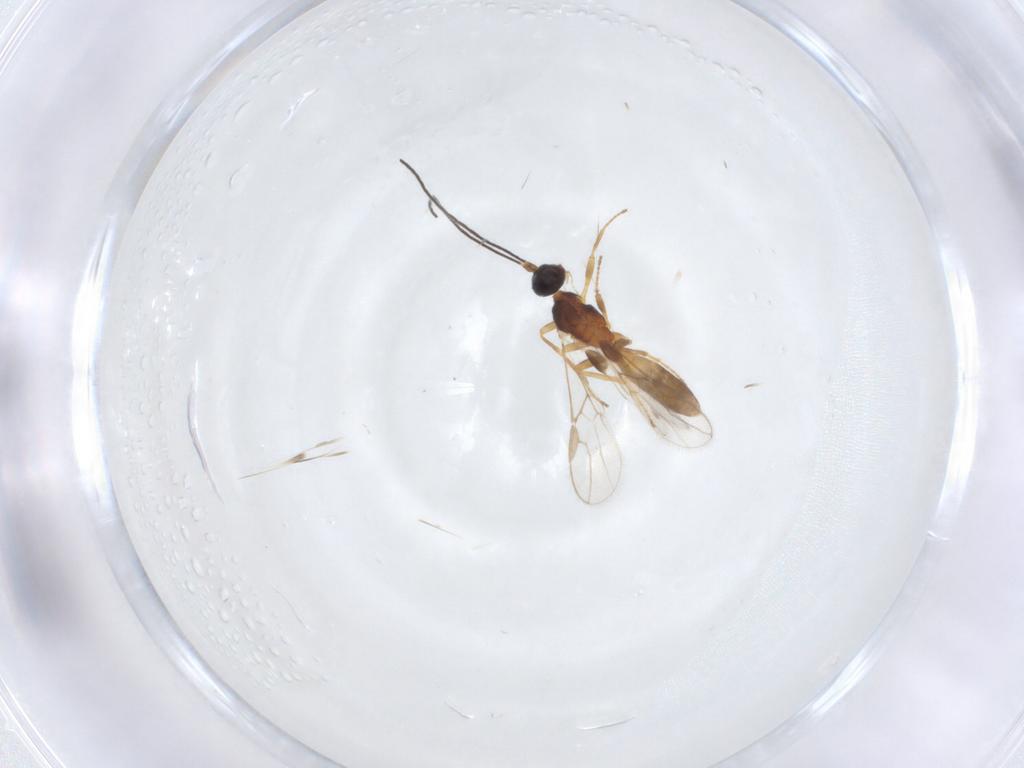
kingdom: Animalia
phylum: Arthropoda
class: Insecta
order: Hymenoptera
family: Braconidae
